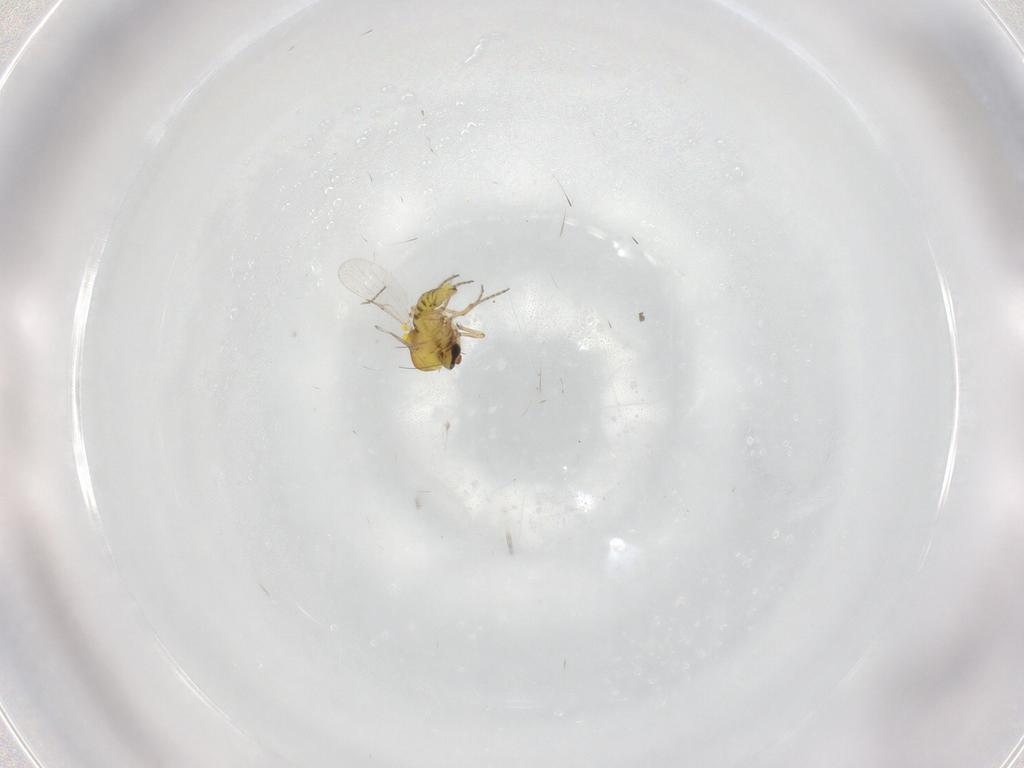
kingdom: Animalia
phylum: Arthropoda
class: Insecta
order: Diptera
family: Ceratopogonidae
